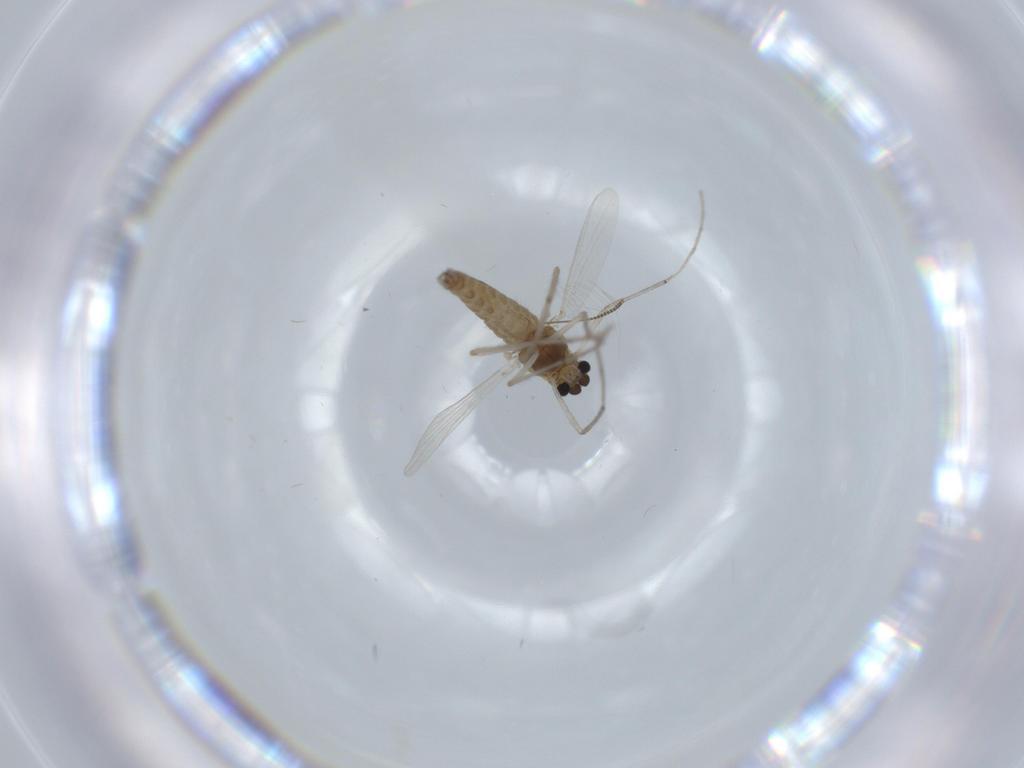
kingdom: Animalia
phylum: Arthropoda
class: Insecta
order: Diptera
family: Chironomidae
